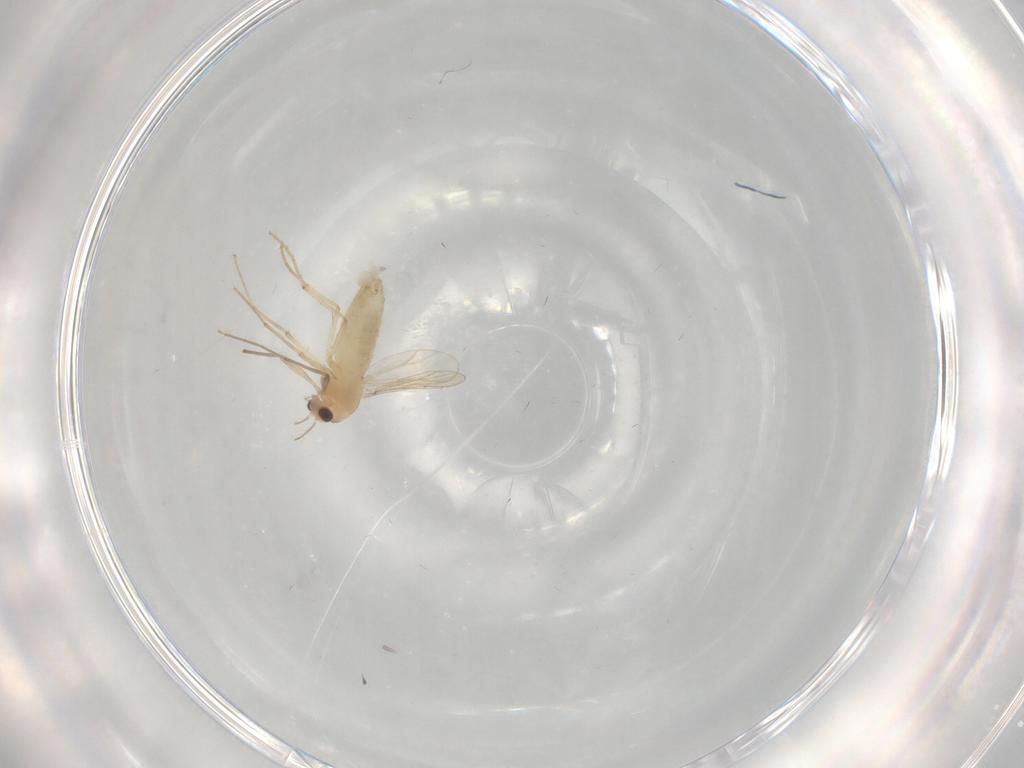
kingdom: Animalia
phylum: Arthropoda
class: Insecta
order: Diptera
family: Chironomidae
